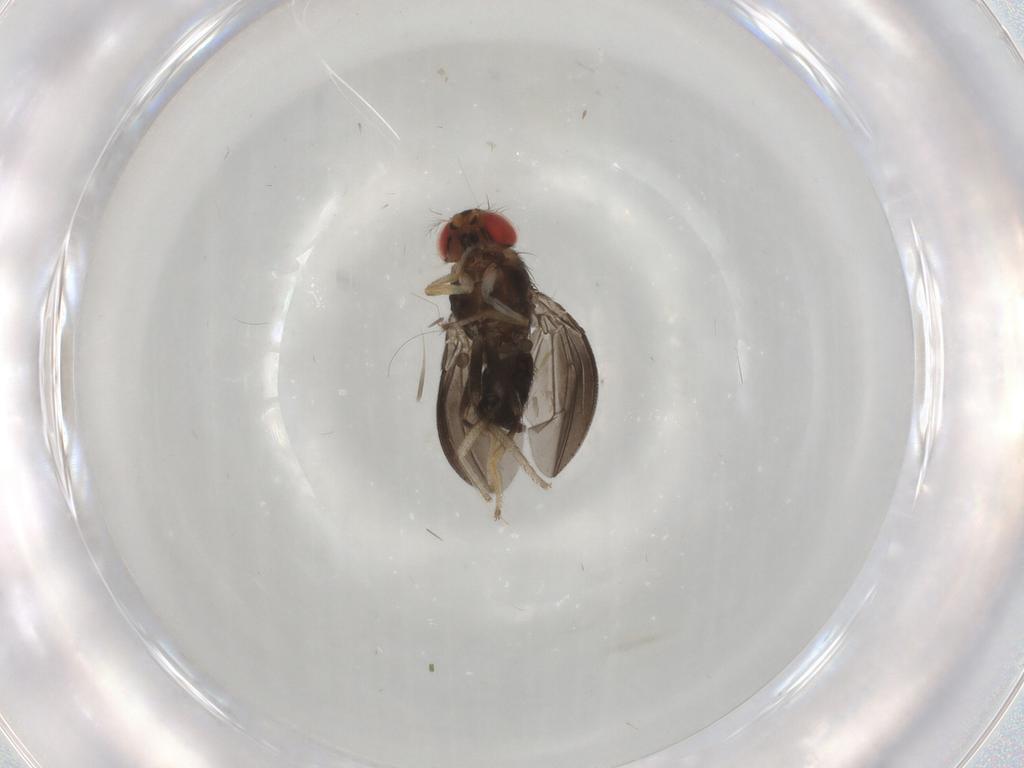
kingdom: Animalia
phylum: Arthropoda
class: Insecta
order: Diptera
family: Drosophilidae
